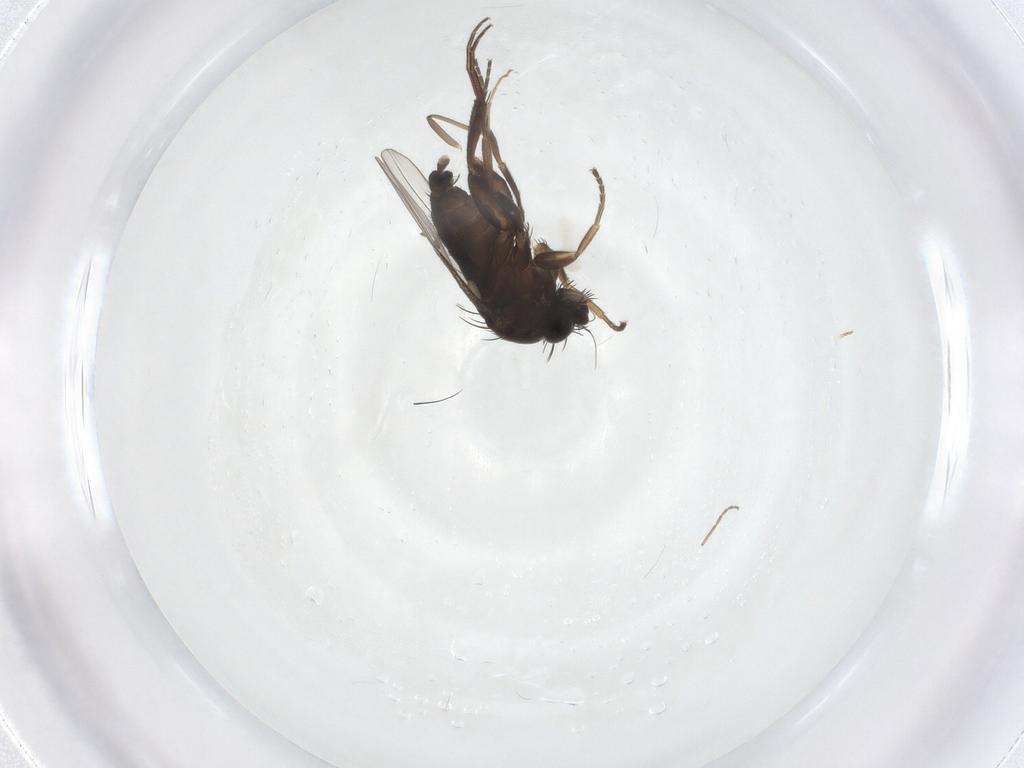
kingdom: Animalia
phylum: Arthropoda
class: Insecta
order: Diptera
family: Phoridae
